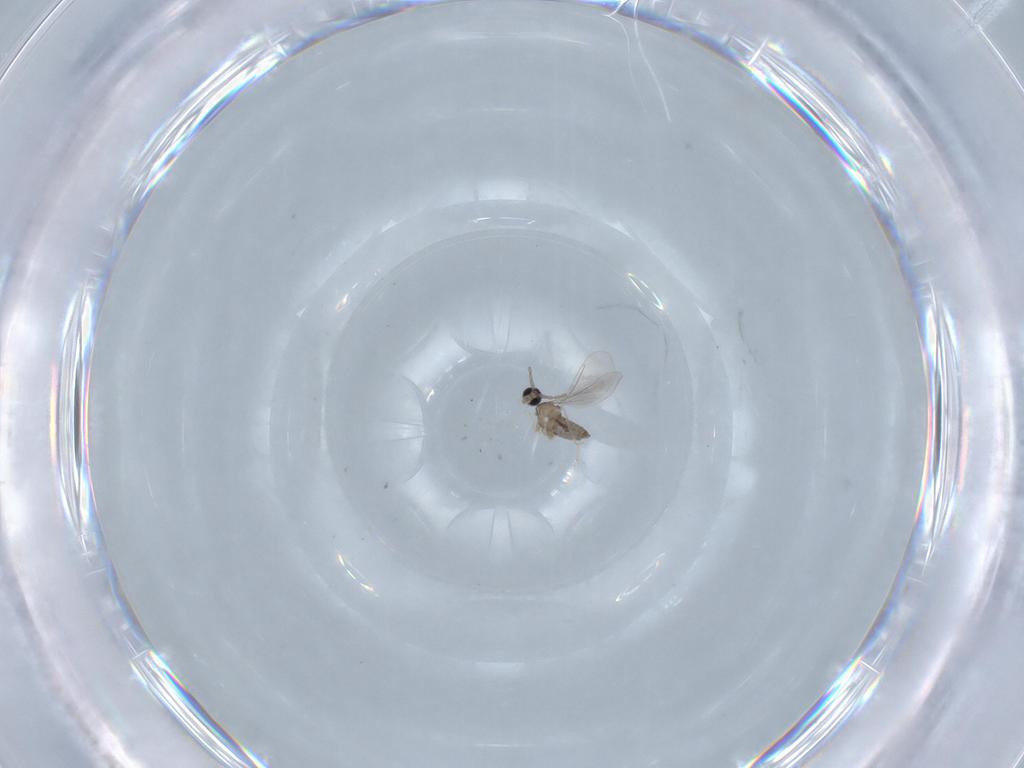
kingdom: Animalia
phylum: Arthropoda
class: Insecta
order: Diptera
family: Cecidomyiidae
